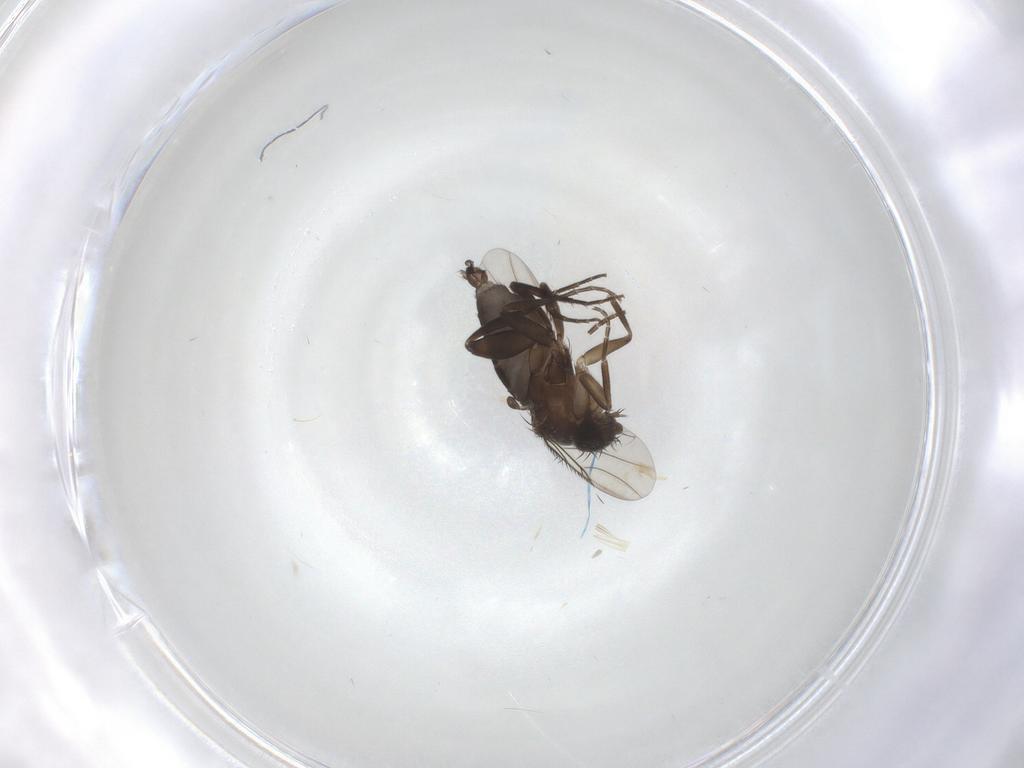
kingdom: Animalia
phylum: Arthropoda
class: Insecta
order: Diptera
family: Phoridae
